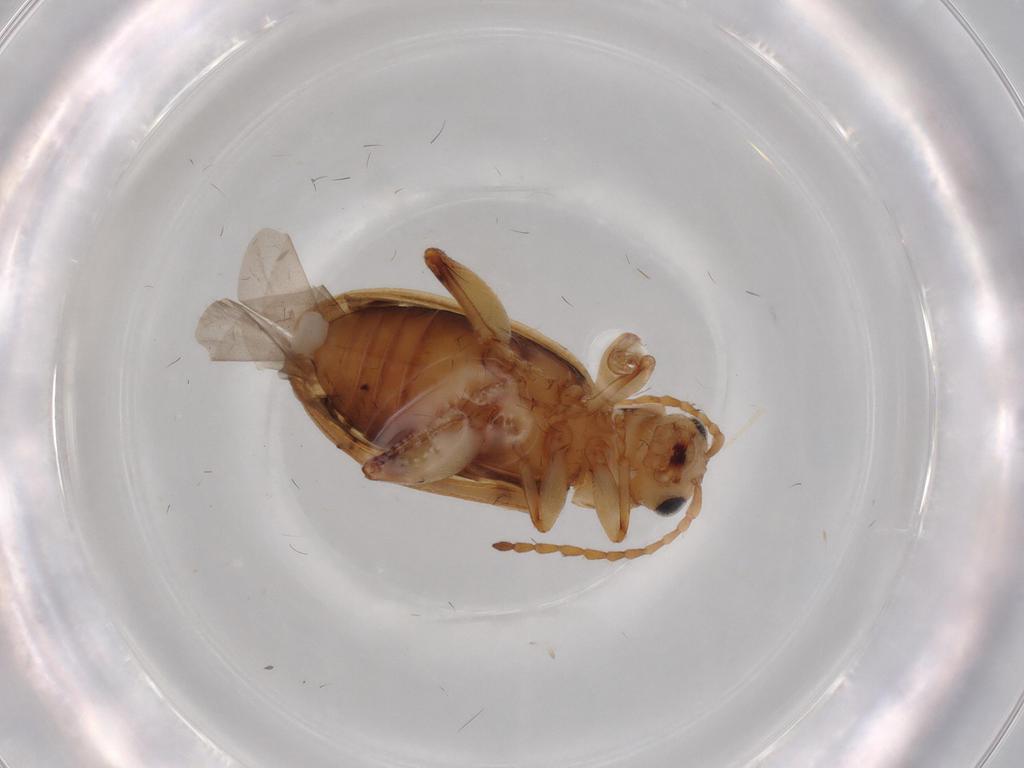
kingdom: Animalia
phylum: Arthropoda
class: Insecta
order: Coleoptera
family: Chrysomelidae
